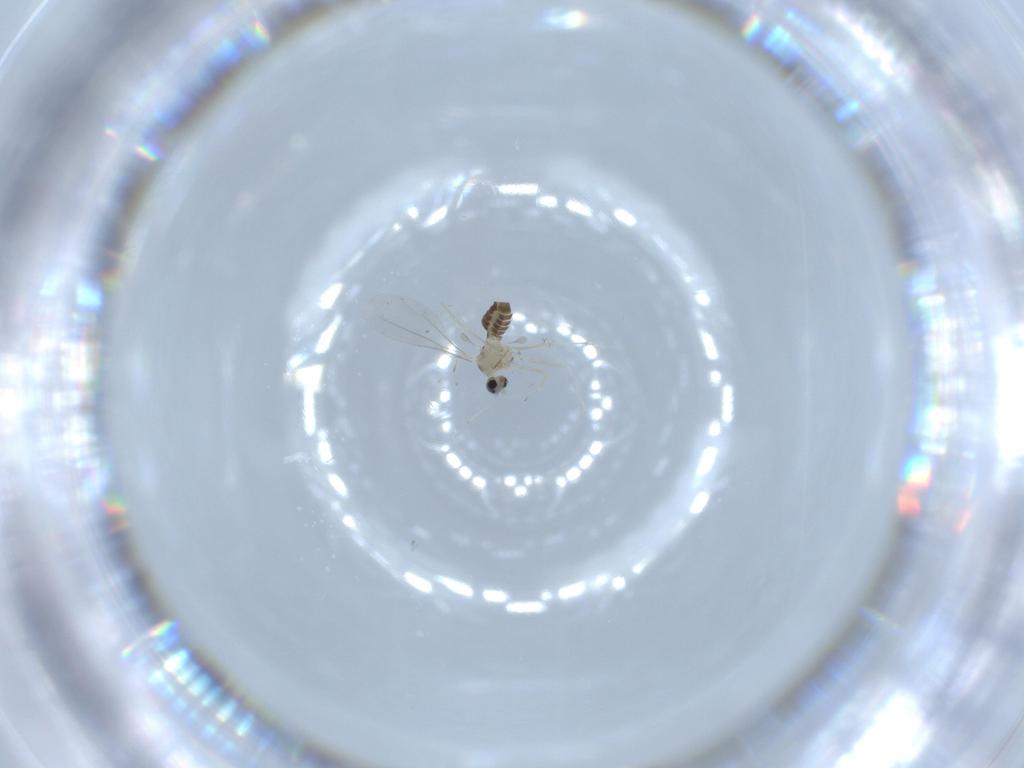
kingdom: Animalia
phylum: Arthropoda
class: Insecta
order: Diptera
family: Cecidomyiidae
